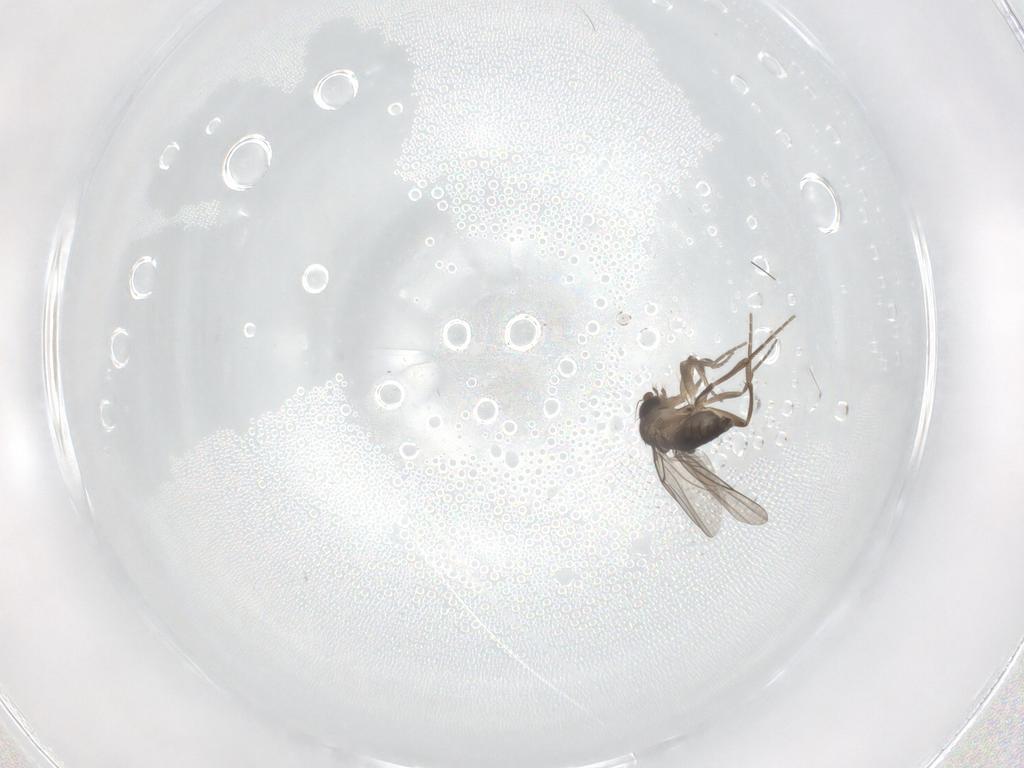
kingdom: Animalia
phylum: Arthropoda
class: Insecta
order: Diptera
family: Phoridae
